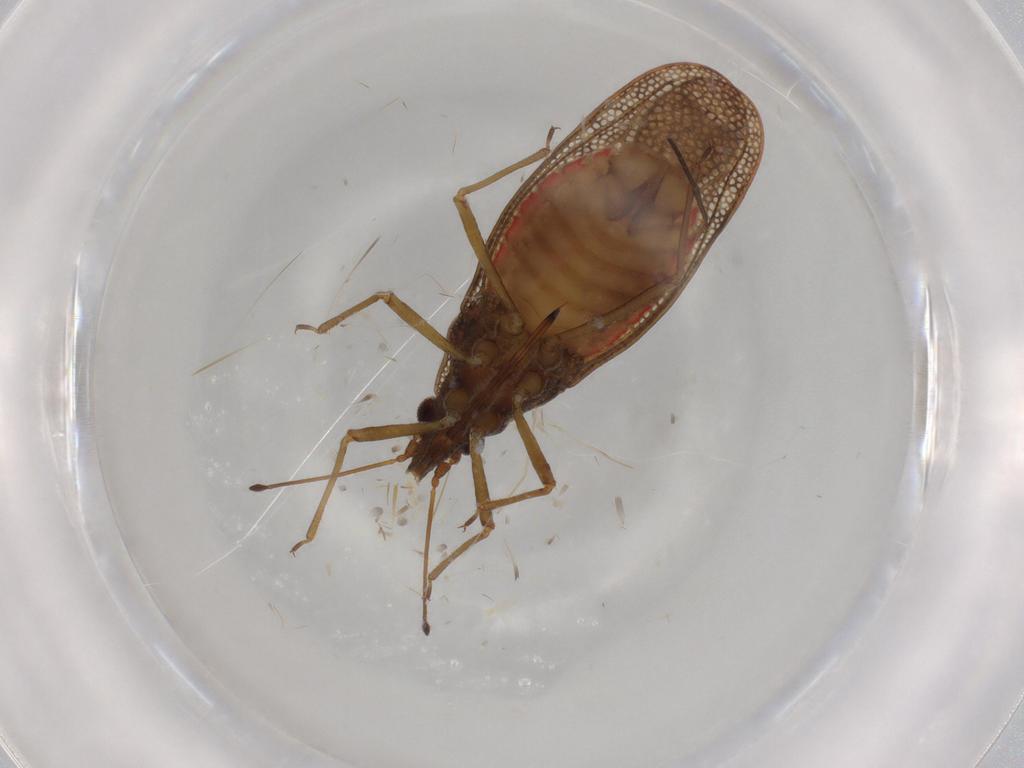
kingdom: Animalia
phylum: Arthropoda
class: Insecta
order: Hemiptera
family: Tingidae
